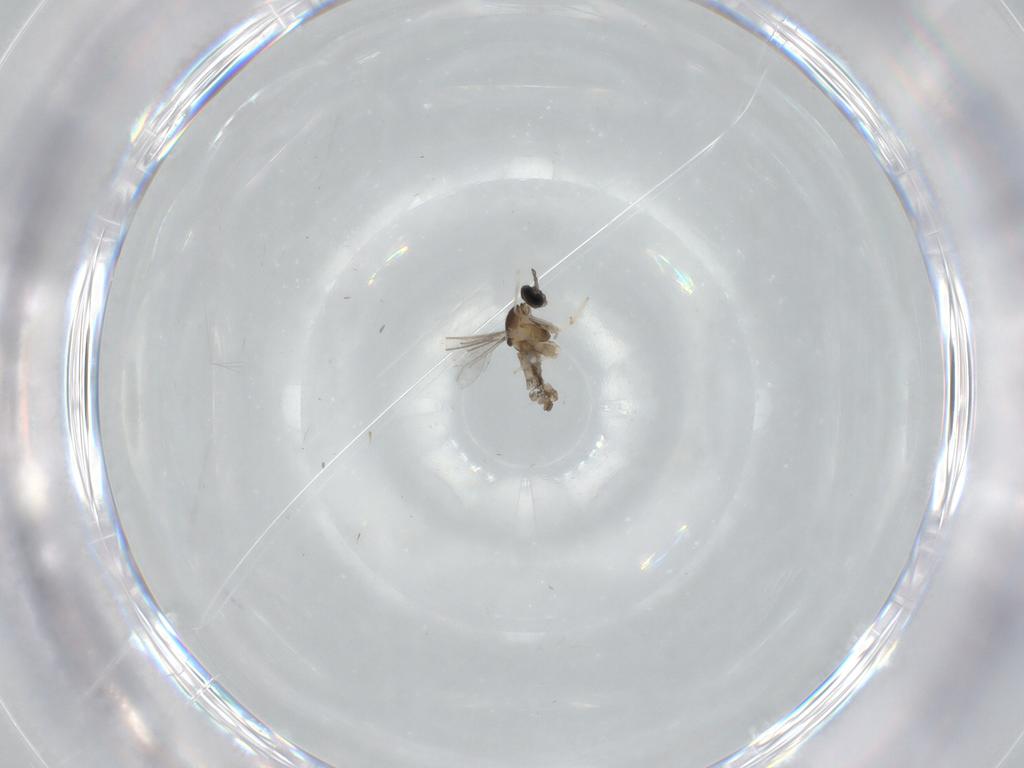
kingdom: Animalia
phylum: Arthropoda
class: Insecta
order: Diptera
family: Cecidomyiidae
